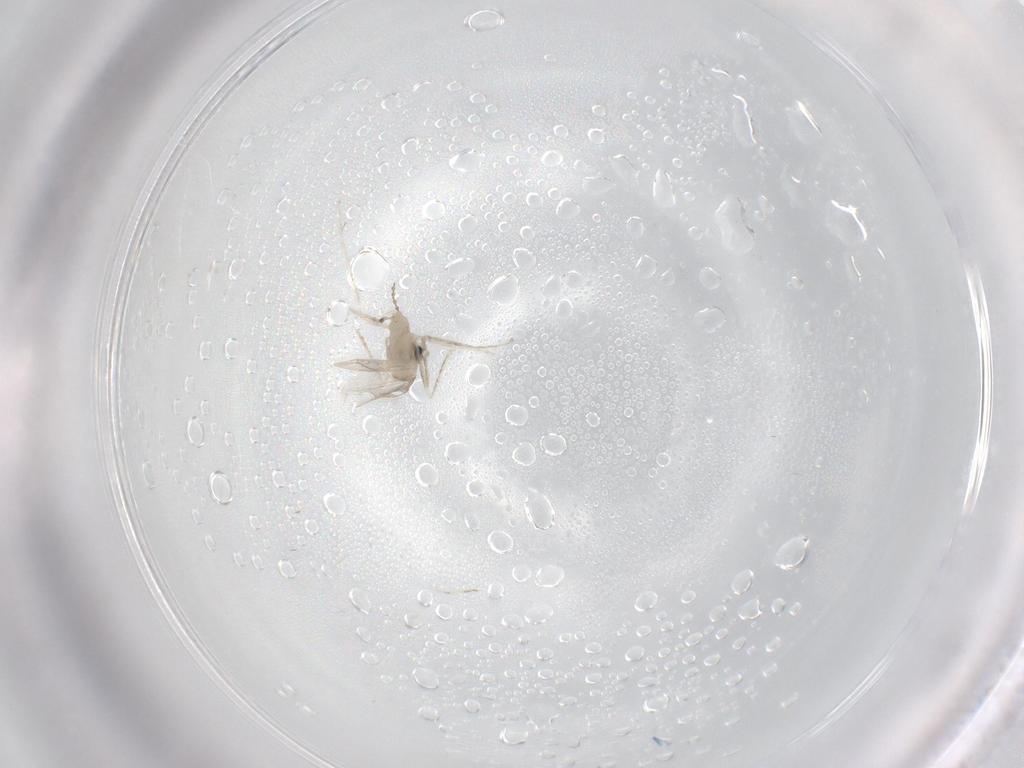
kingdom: Animalia
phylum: Arthropoda
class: Insecta
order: Diptera
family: Cecidomyiidae
